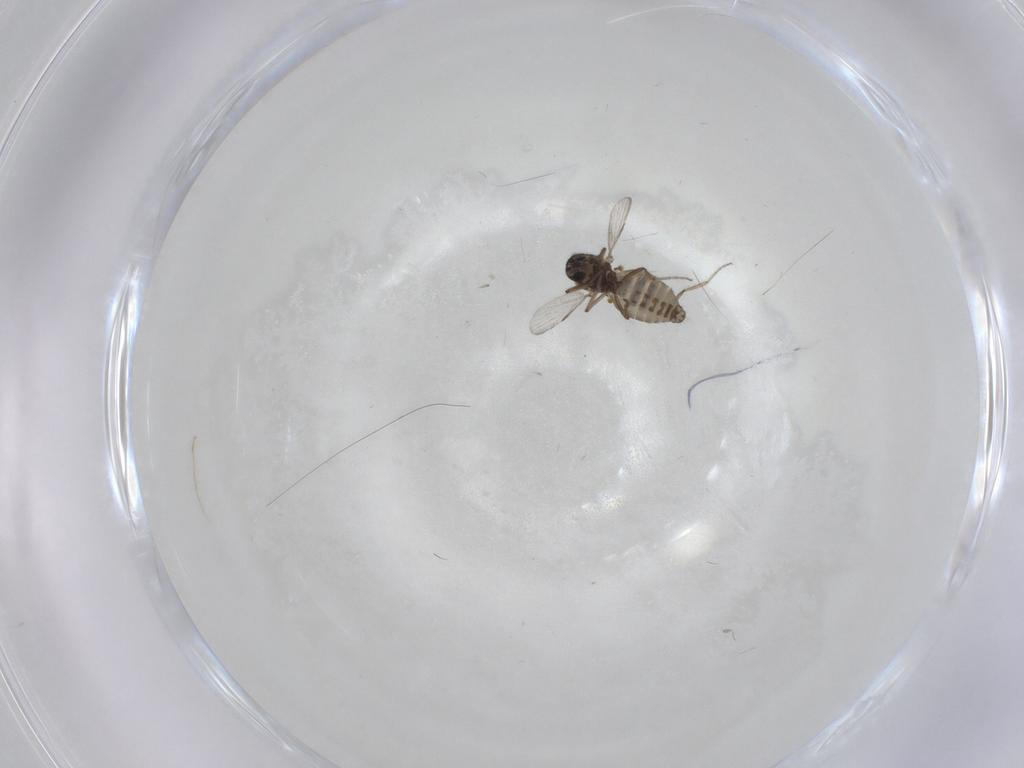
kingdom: Animalia
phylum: Arthropoda
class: Insecta
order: Diptera
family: Ceratopogonidae
